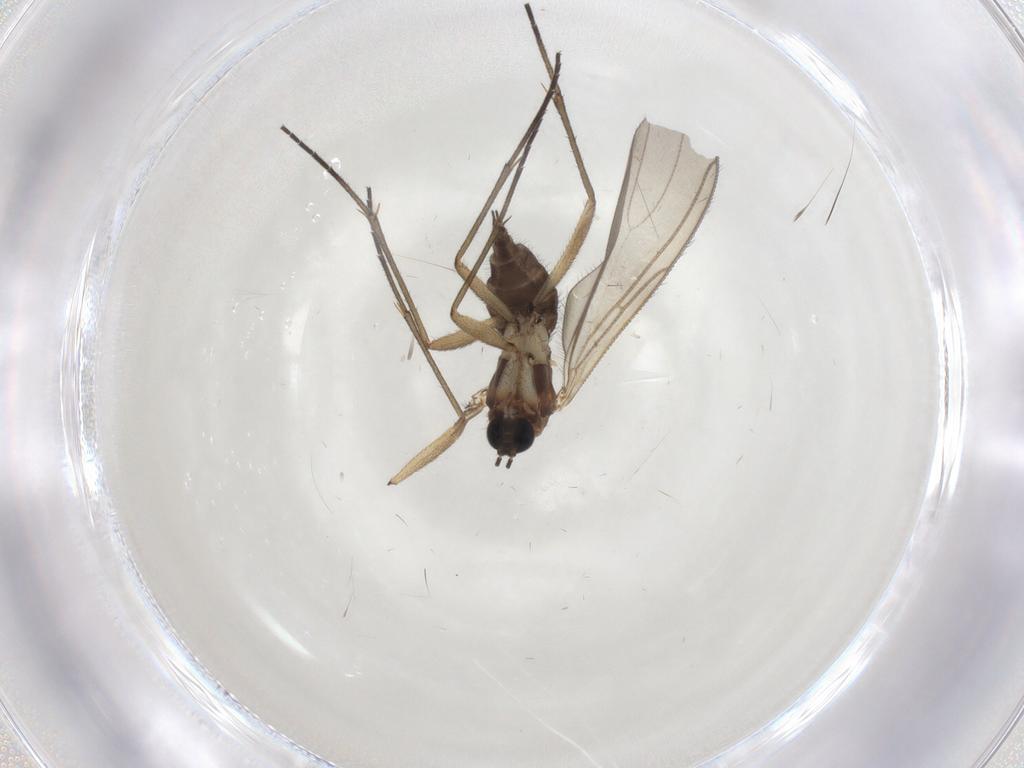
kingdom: Animalia
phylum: Arthropoda
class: Insecta
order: Diptera
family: Sciaridae
